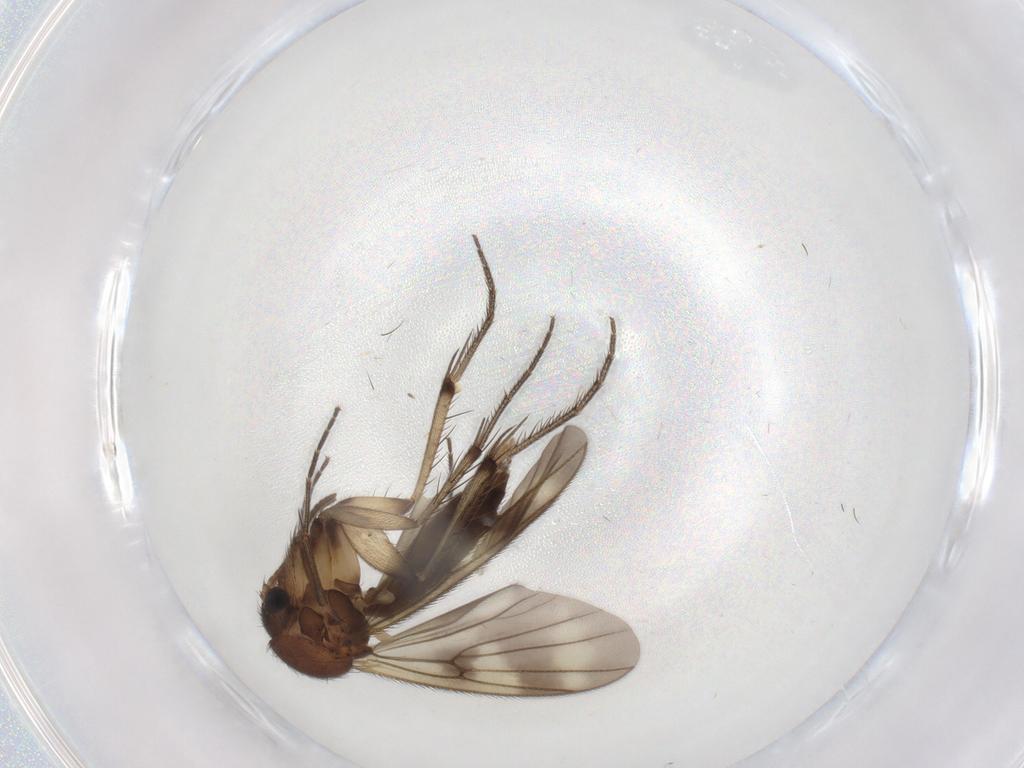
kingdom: Animalia
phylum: Arthropoda
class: Insecta
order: Diptera
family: Mycetophilidae
